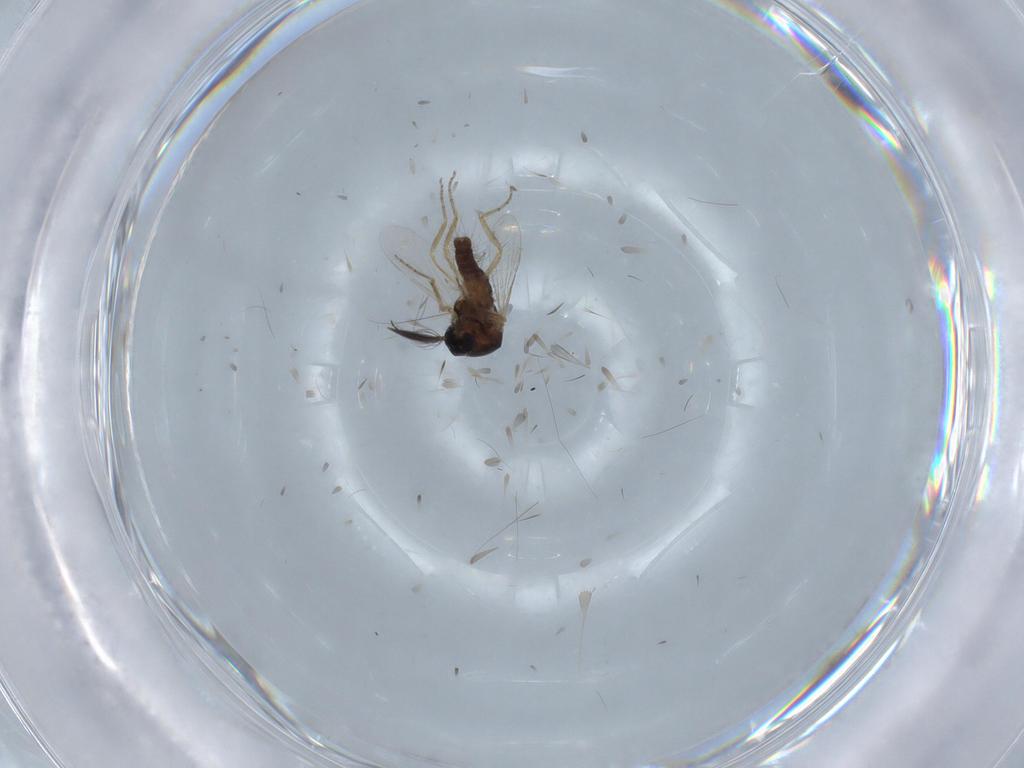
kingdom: Animalia
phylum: Arthropoda
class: Insecta
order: Diptera
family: Ceratopogonidae
